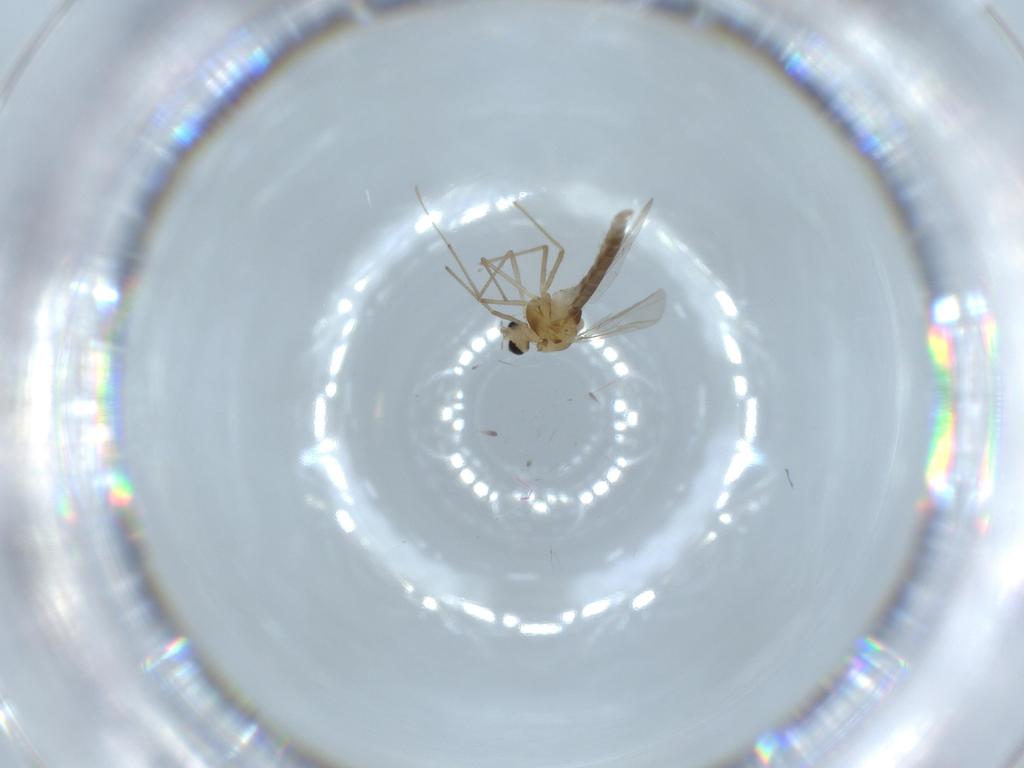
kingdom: Animalia
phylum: Arthropoda
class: Insecta
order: Diptera
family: Chironomidae
